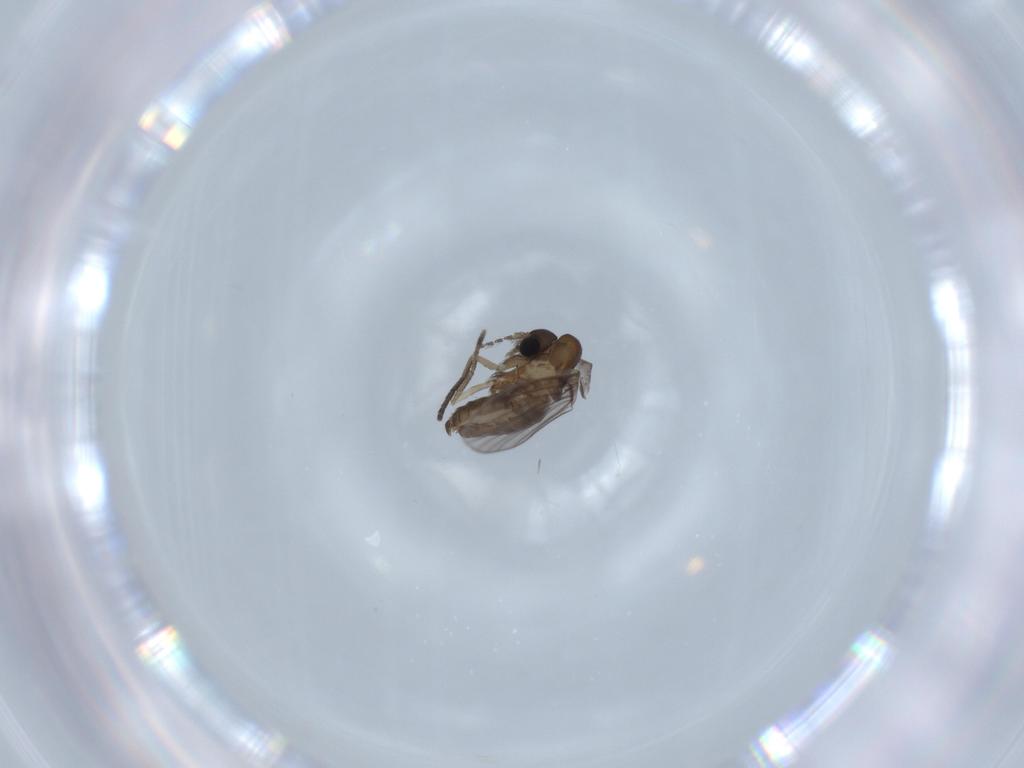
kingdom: Animalia
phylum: Arthropoda
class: Insecta
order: Diptera
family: Psychodidae
